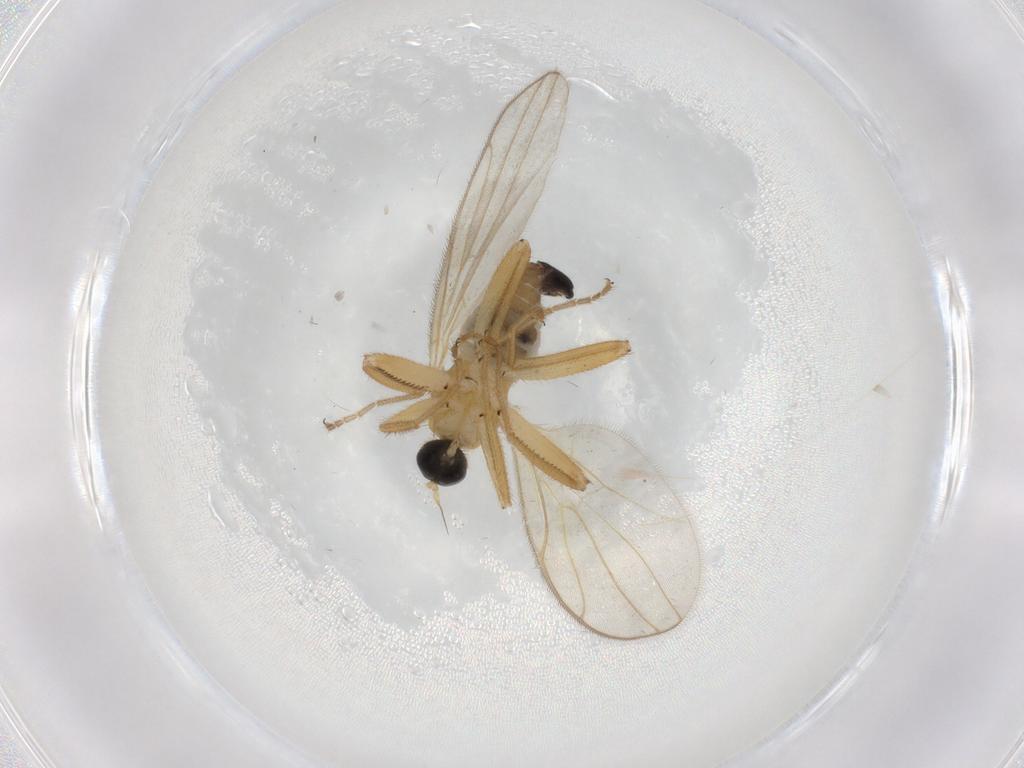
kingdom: Animalia
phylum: Arthropoda
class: Insecta
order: Diptera
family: Hybotidae
